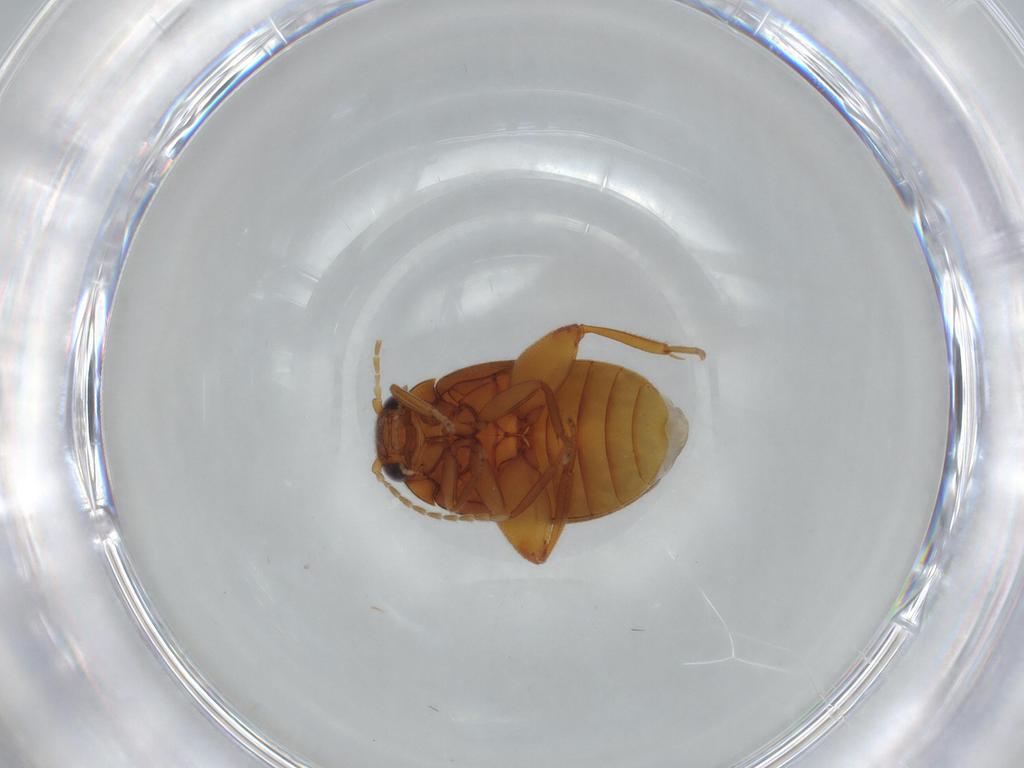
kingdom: Animalia
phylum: Arthropoda
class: Insecta
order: Coleoptera
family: Scirtidae
